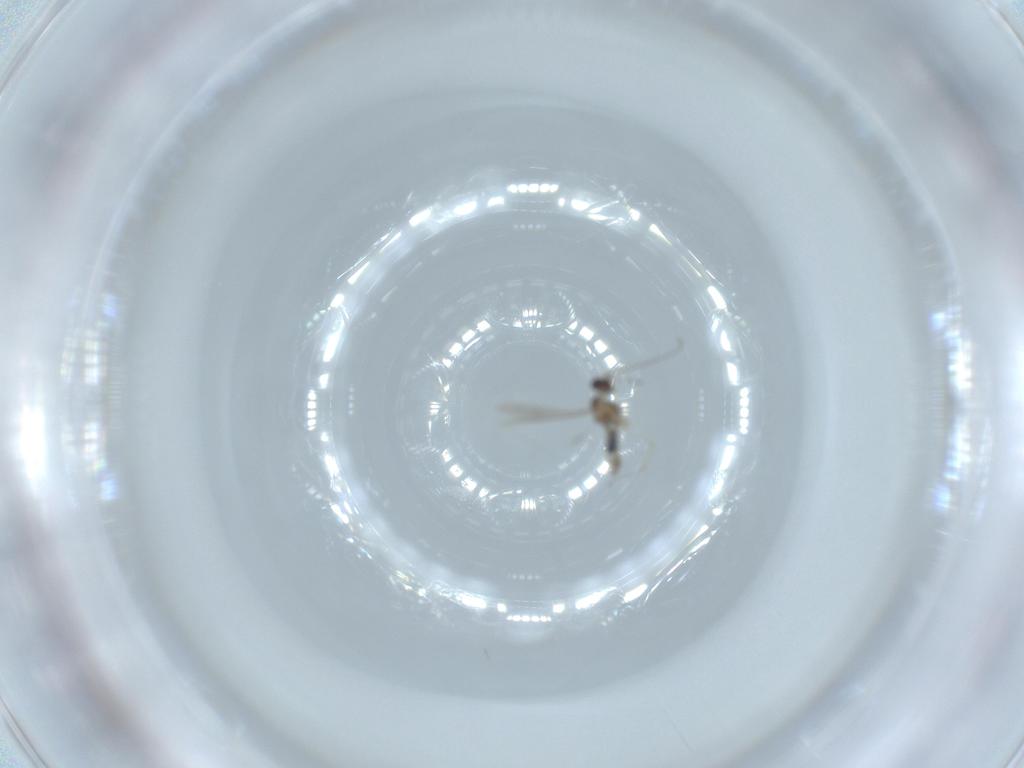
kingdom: Animalia
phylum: Arthropoda
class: Insecta
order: Diptera
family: Cecidomyiidae
